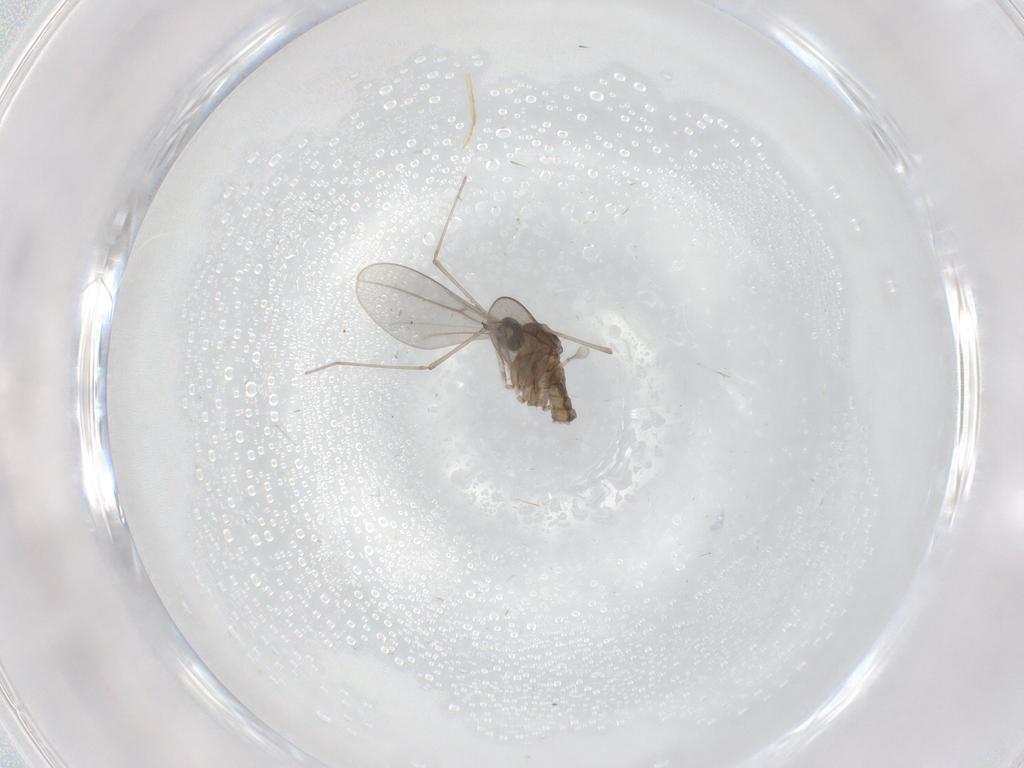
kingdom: Animalia
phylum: Arthropoda
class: Insecta
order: Diptera
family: Cecidomyiidae
